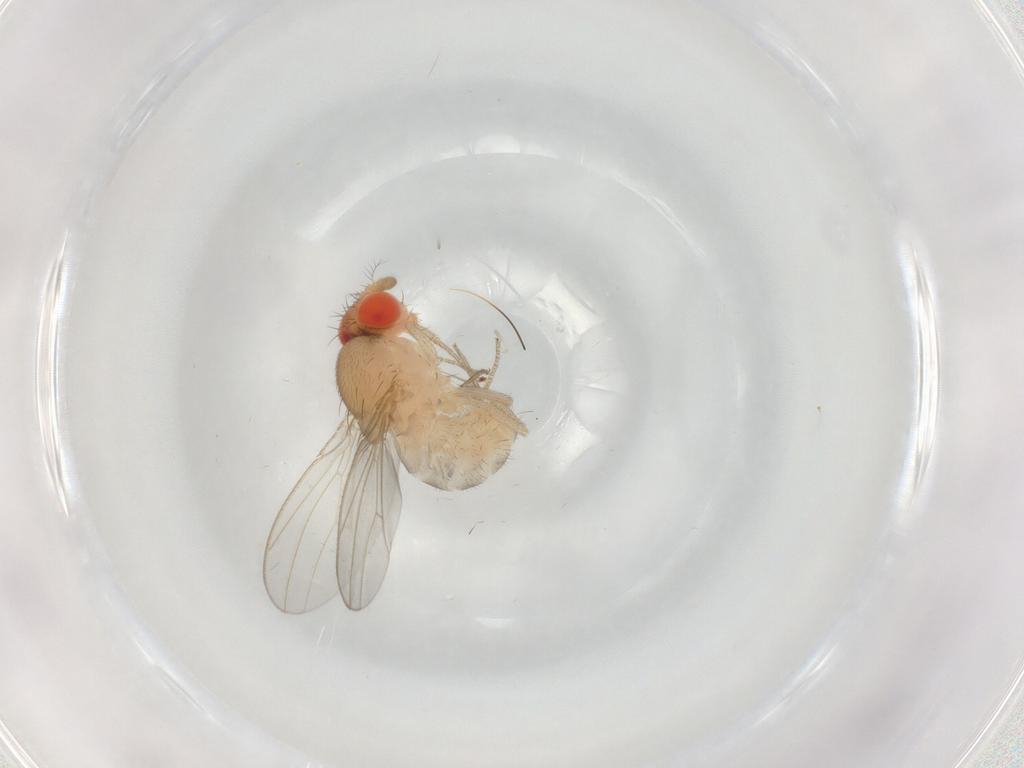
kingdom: Animalia
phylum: Arthropoda
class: Insecta
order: Diptera
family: Drosophilidae
